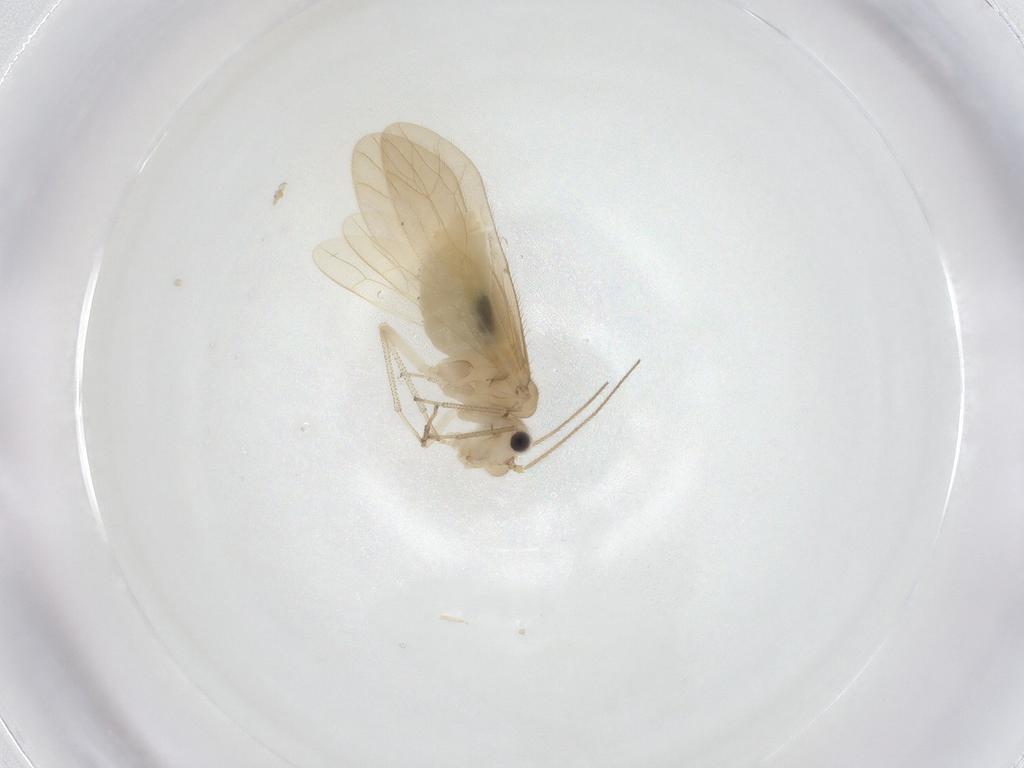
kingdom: Animalia
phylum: Arthropoda
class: Insecta
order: Psocodea
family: Caeciliusidae
